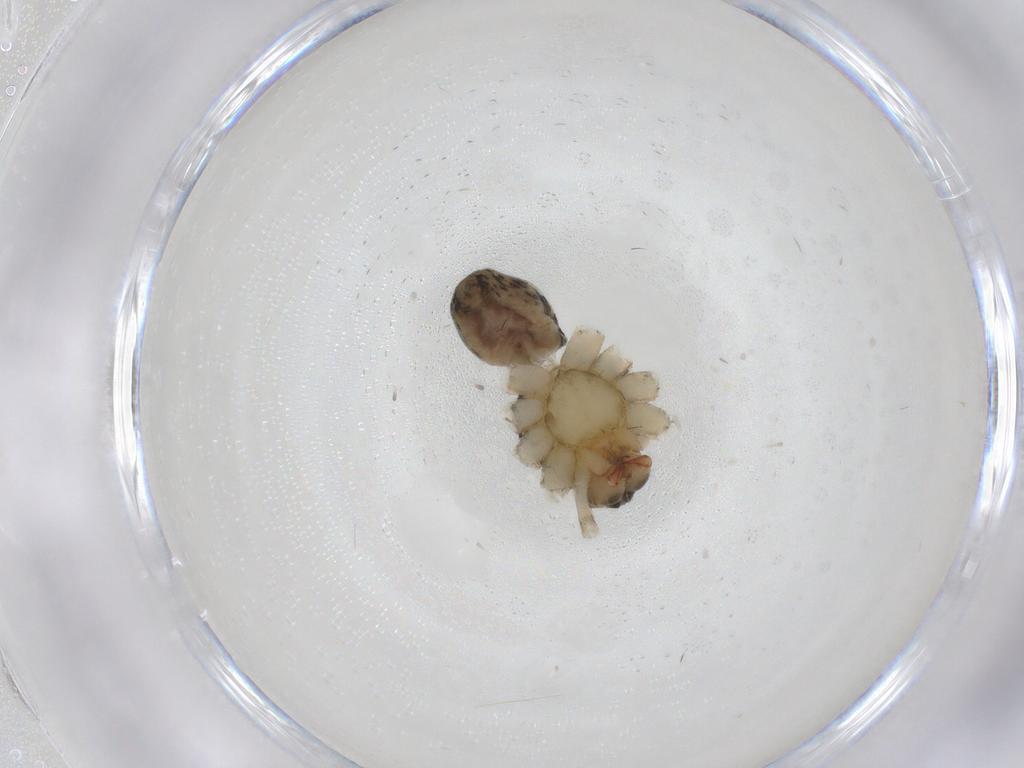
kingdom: Animalia
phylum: Arthropoda
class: Arachnida
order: Araneae
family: Ctenidae
